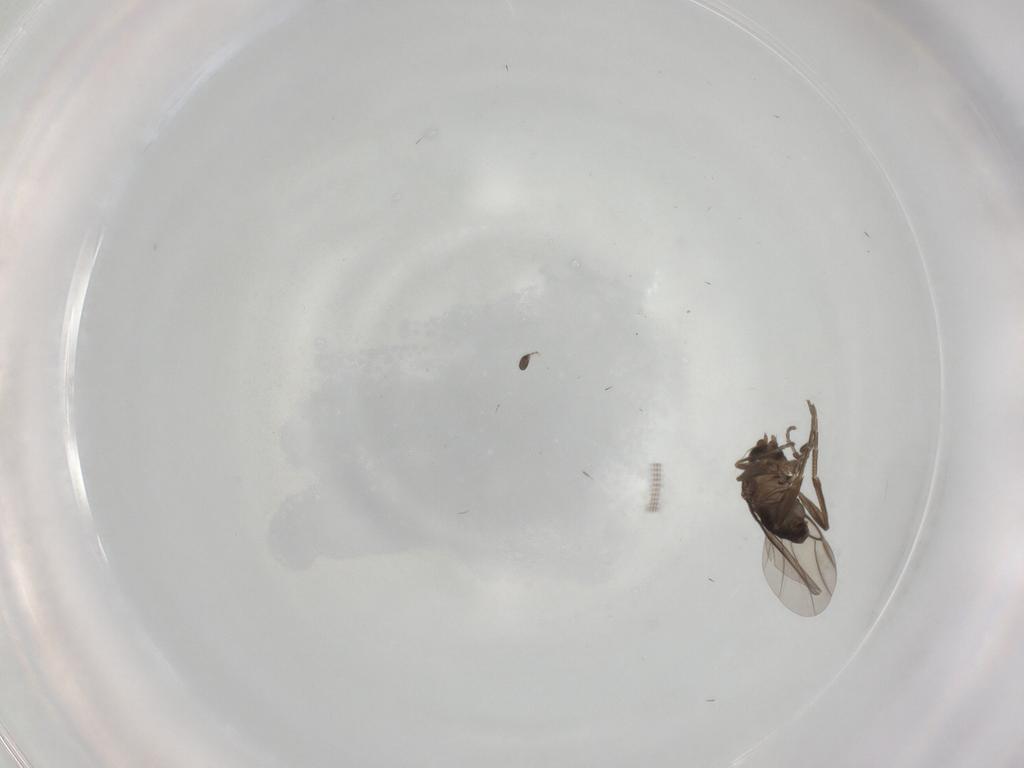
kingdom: Animalia
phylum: Arthropoda
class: Insecta
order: Diptera
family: Phoridae
